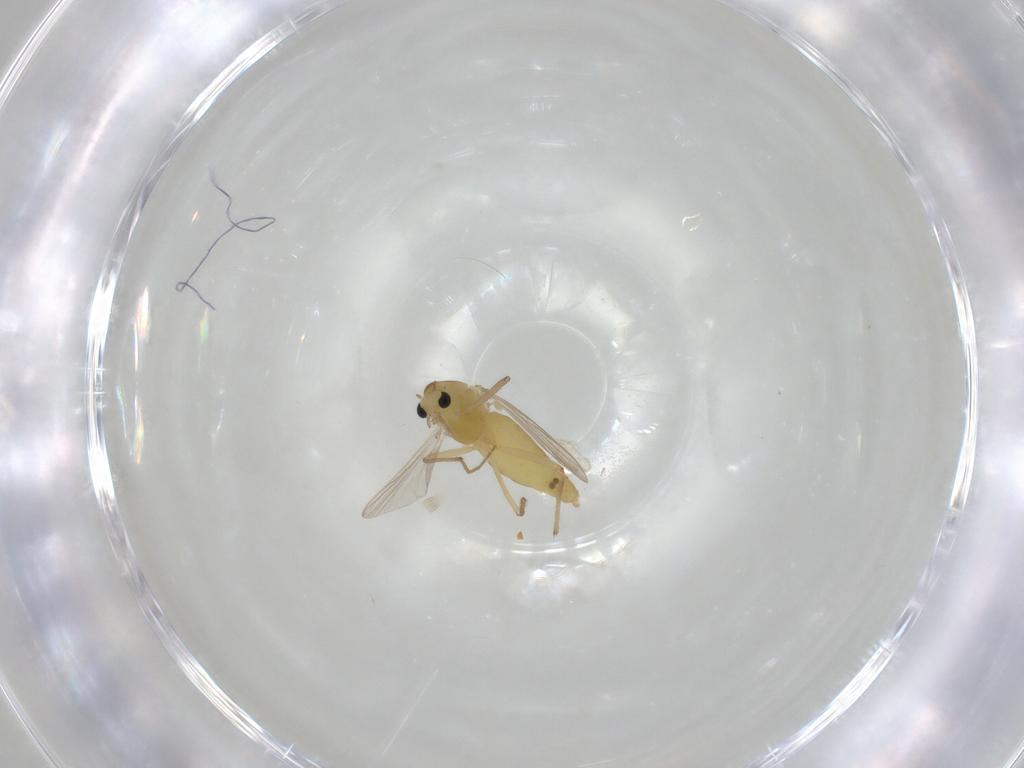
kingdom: Animalia
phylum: Arthropoda
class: Insecta
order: Diptera
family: Chironomidae
